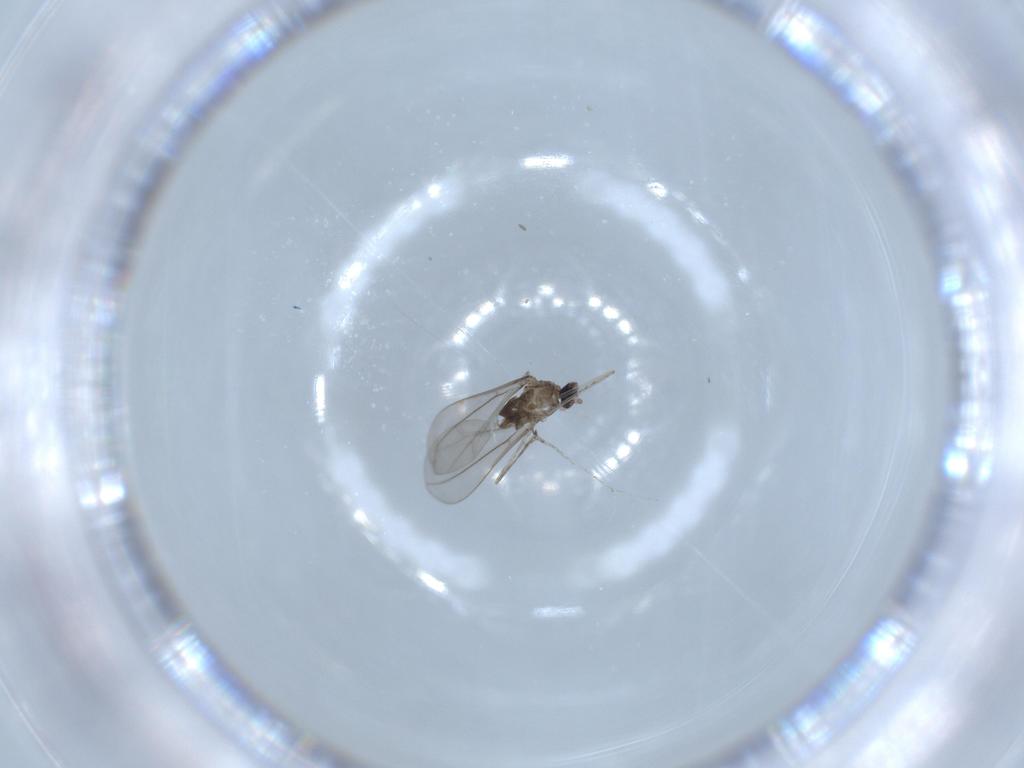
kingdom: Animalia
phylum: Arthropoda
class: Insecta
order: Diptera
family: Cecidomyiidae
